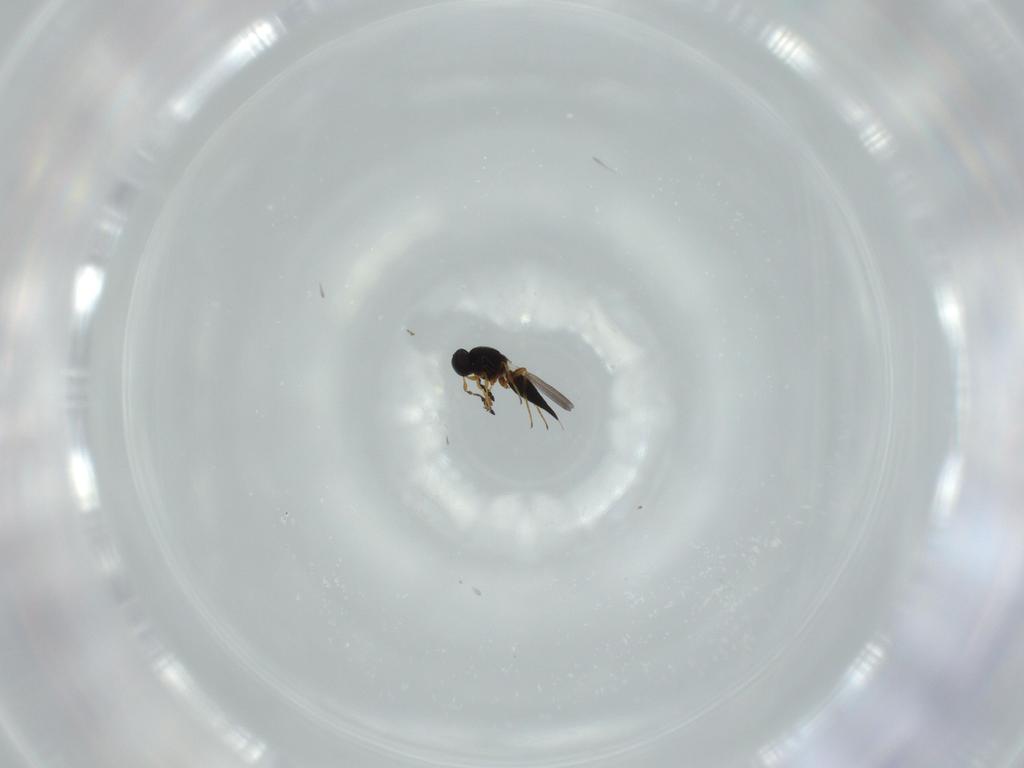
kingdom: Animalia
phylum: Arthropoda
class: Insecta
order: Hymenoptera
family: Platygastridae
